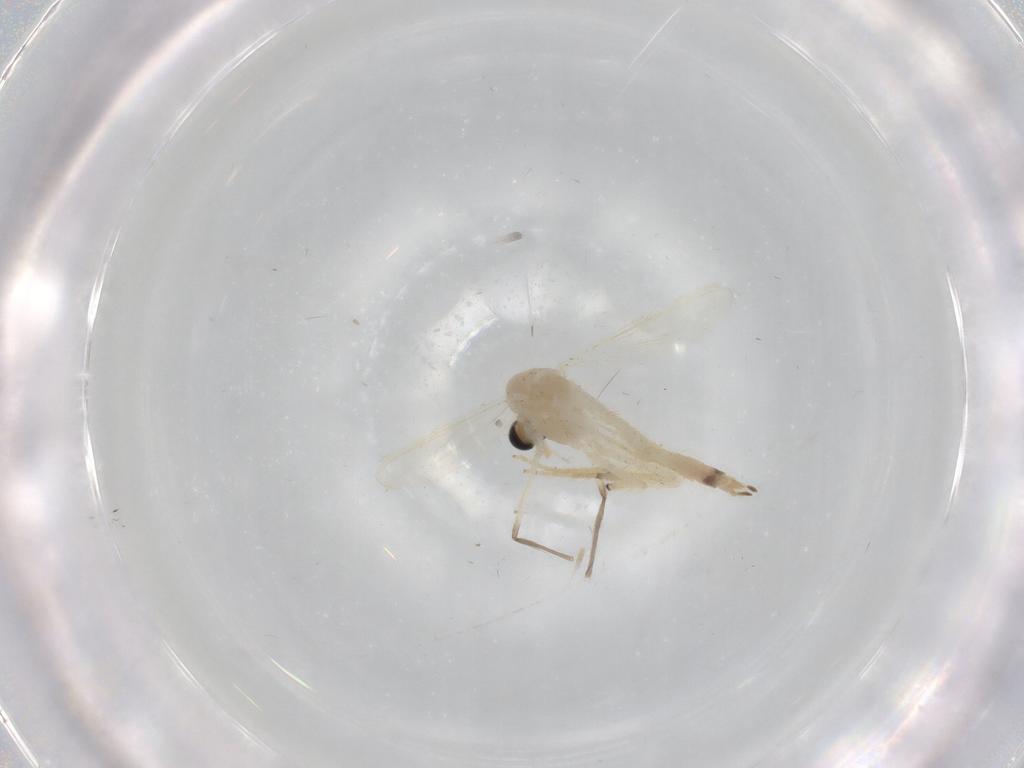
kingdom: Animalia
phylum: Arthropoda
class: Insecta
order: Diptera
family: Chironomidae
